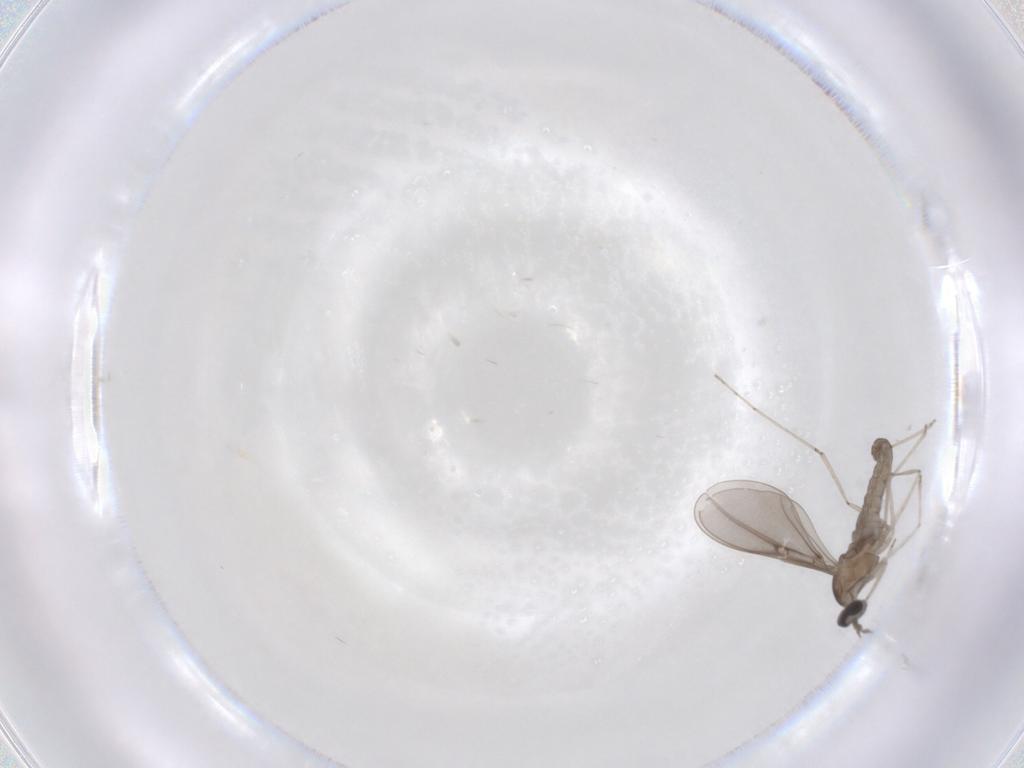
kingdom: Animalia
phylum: Arthropoda
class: Insecta
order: Diptera
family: Cecidomyiidae
